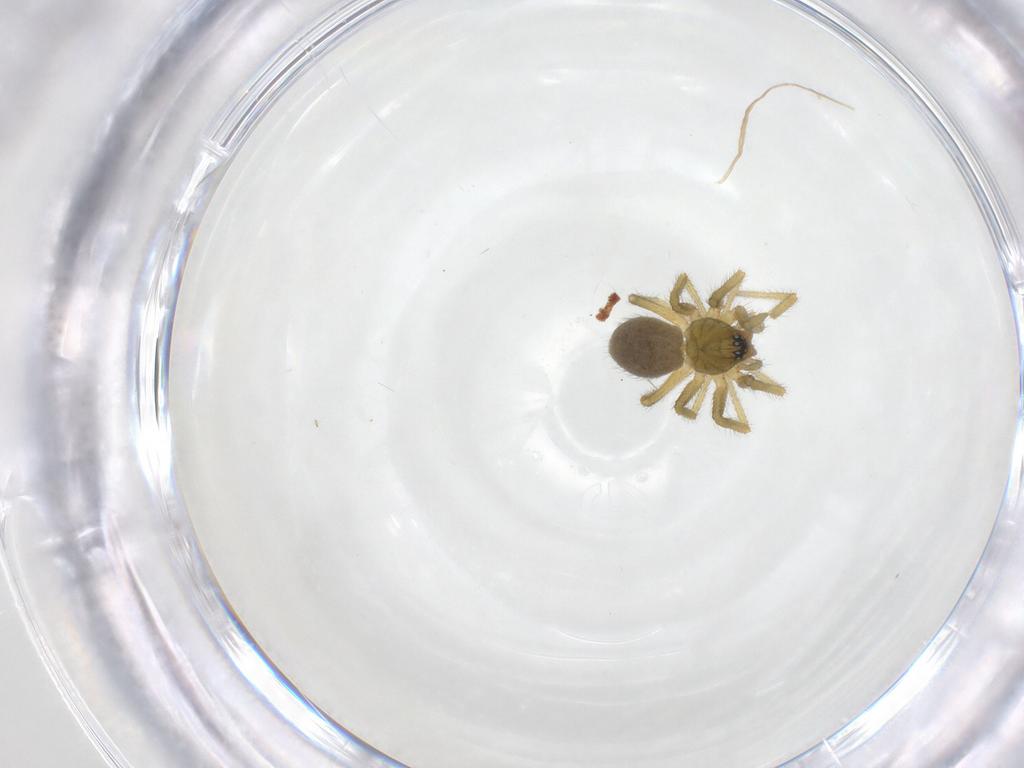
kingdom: Animalia
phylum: Arthropoda
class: Arachnida
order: Araneae
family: Linyphiidae
